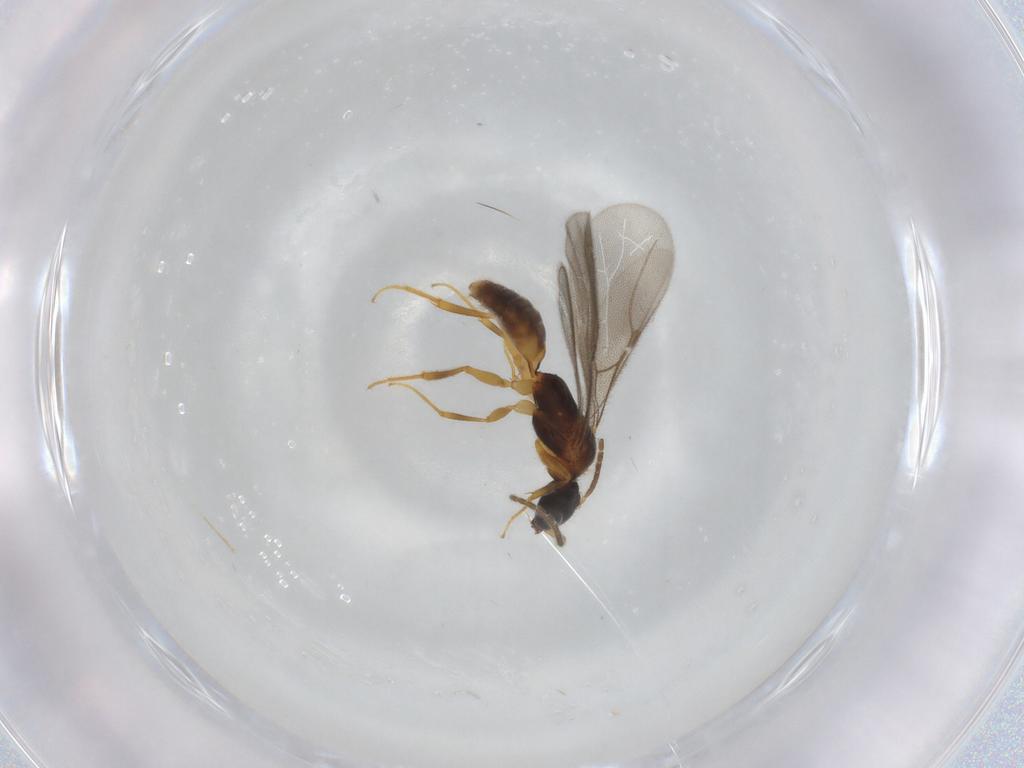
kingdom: Animalia
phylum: Arthropoda
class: Insecta
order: Hymenoptera
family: Bethylidae
